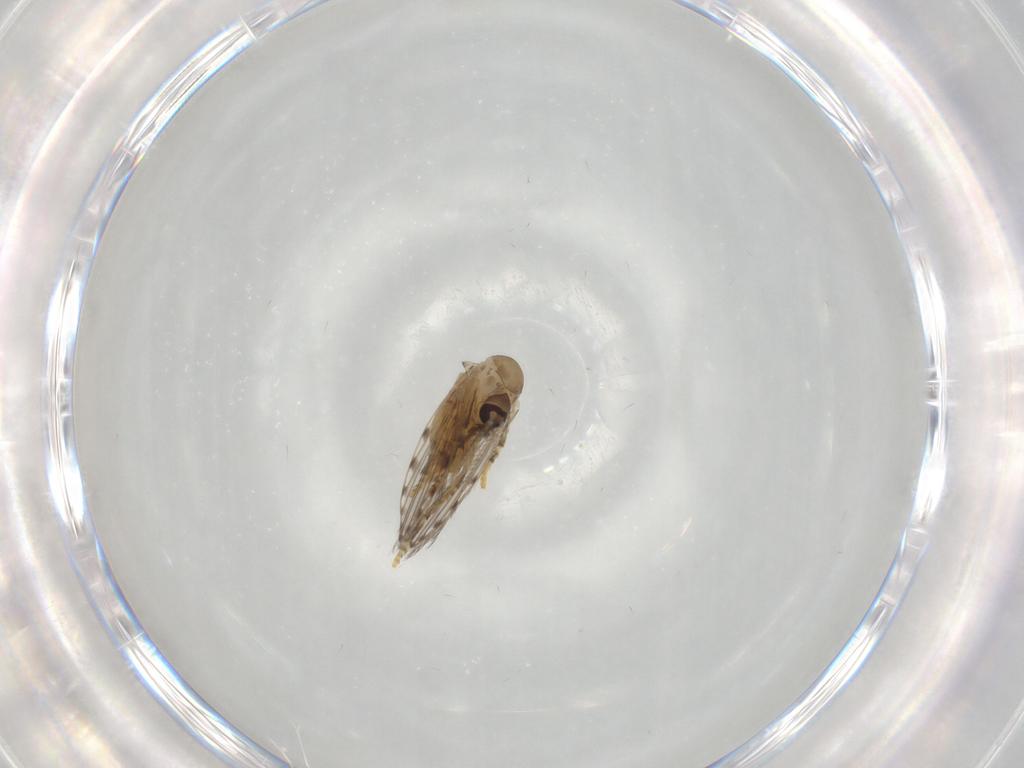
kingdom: Animalia
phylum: Arthropoda
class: Insecta
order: Diptera
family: Psychodidae
